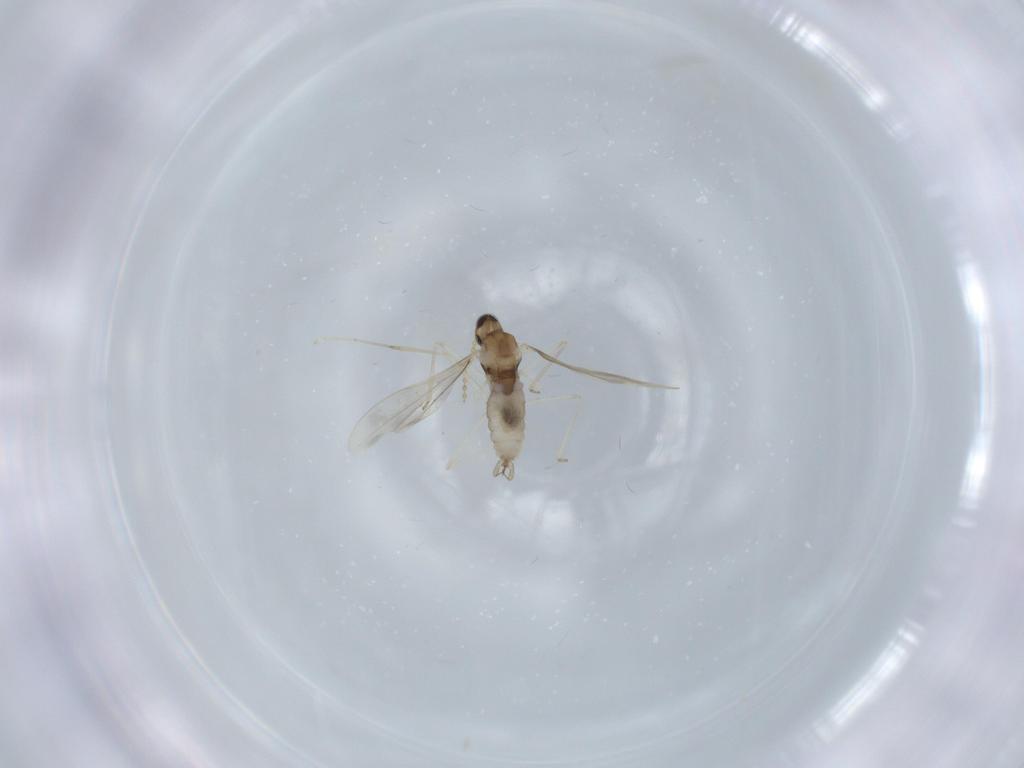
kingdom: Animalia
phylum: Arthropoda
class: Insecta
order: Diptera
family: Cecidomyiidae
